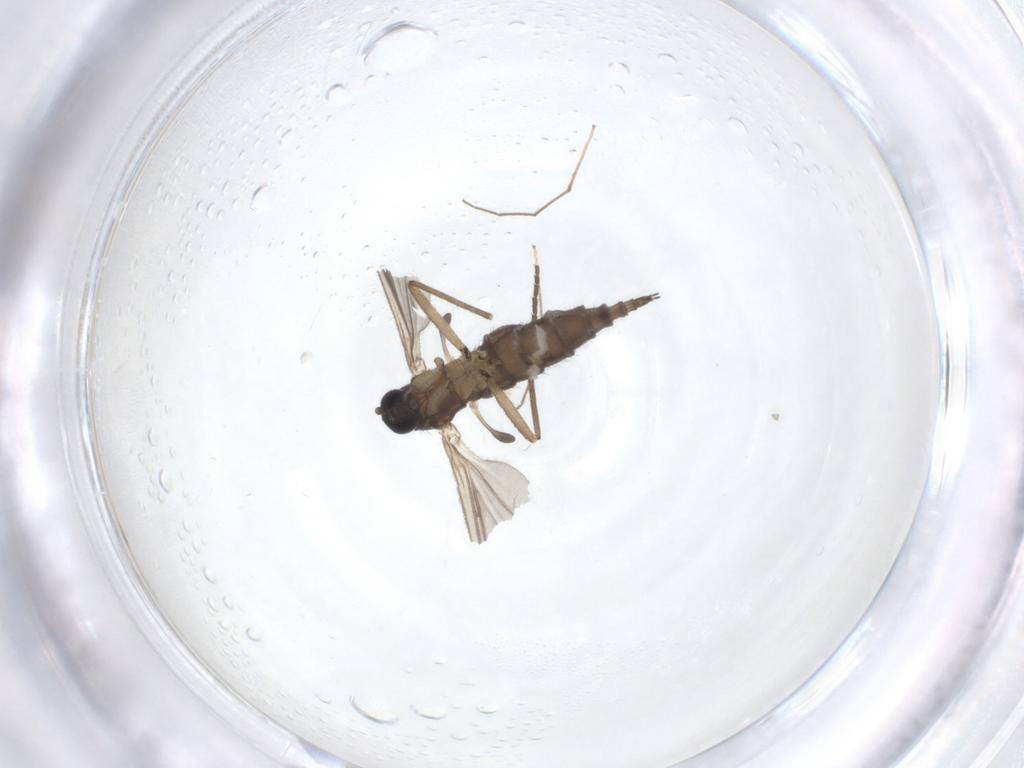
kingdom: Animalia
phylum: Arthropoda
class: Insecta
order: Diptera
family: Sciaridae
